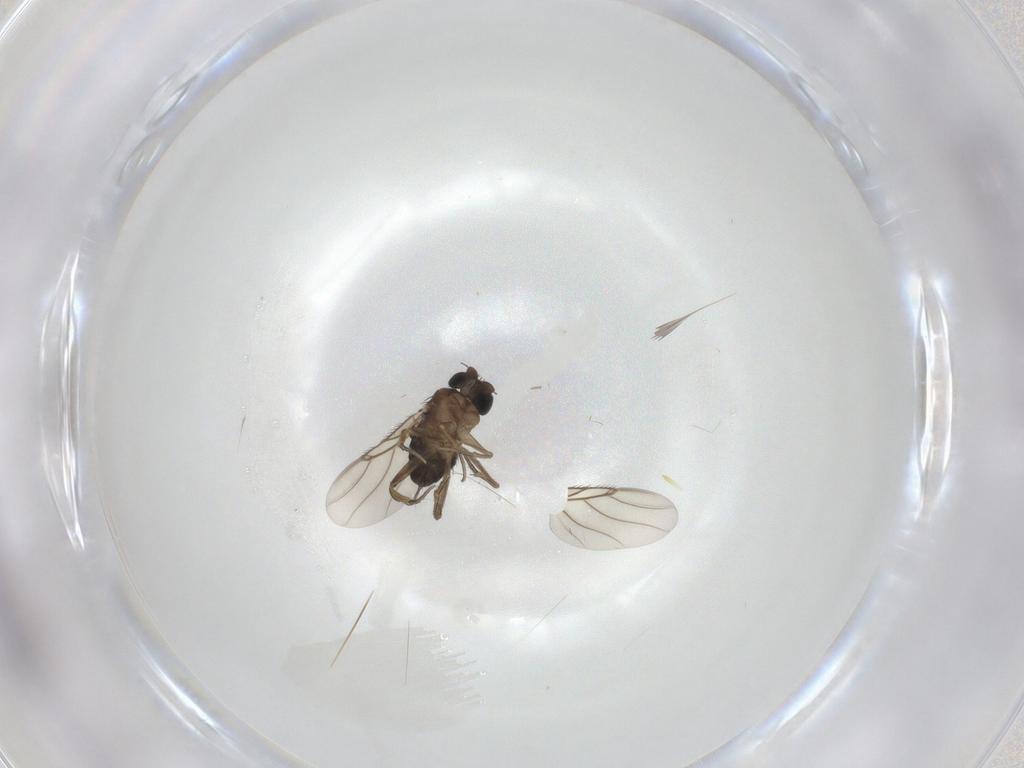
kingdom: Animalia
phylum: Arthropoda
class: Insecta
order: Diptera
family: Phoridae
